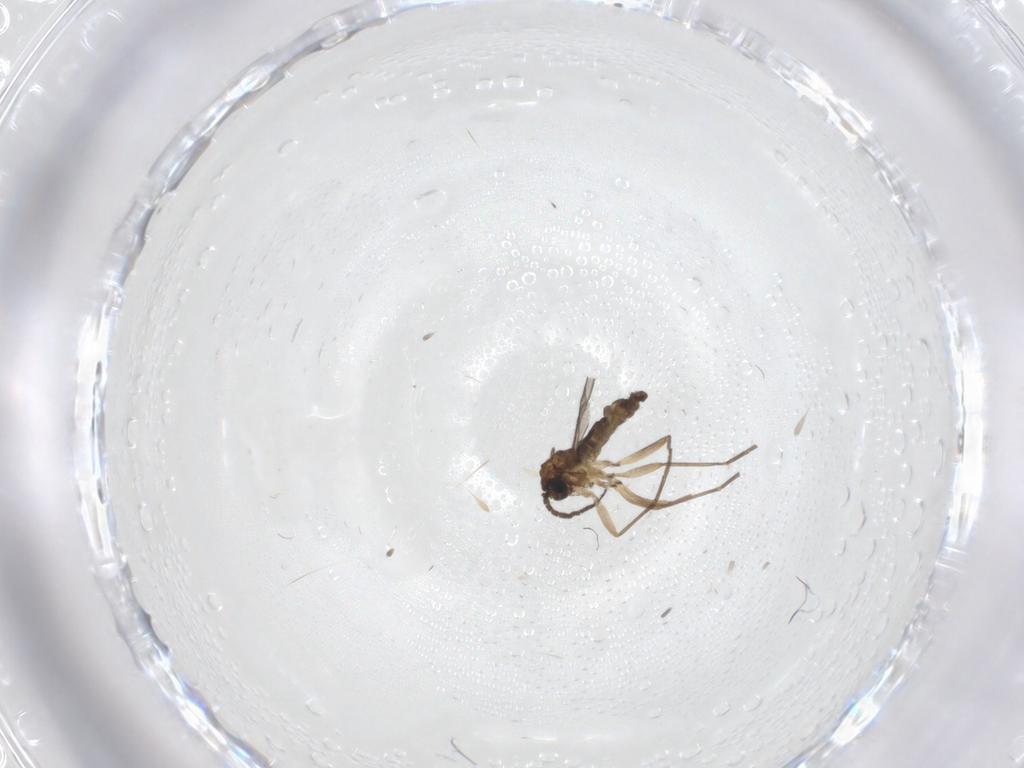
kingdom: Animalia
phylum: Arthropoda
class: Insecta
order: Diptera
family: Sciaridae
